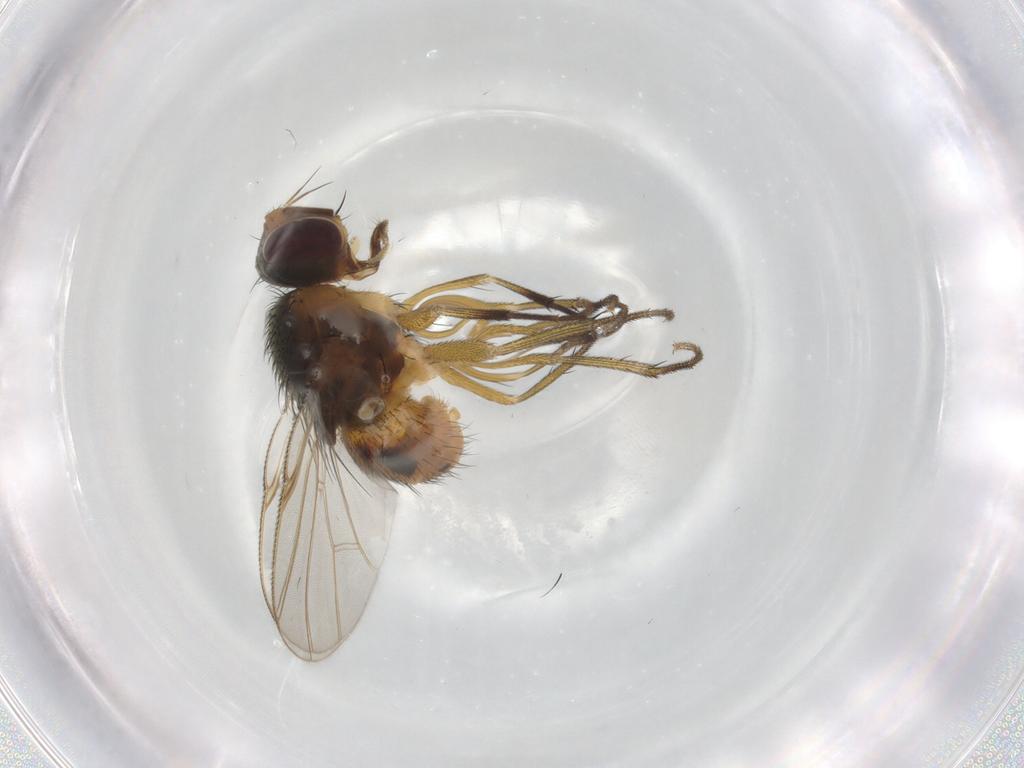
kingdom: Animalia
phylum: Arthropoda
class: Insecta
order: Diptera
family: Muscidae
